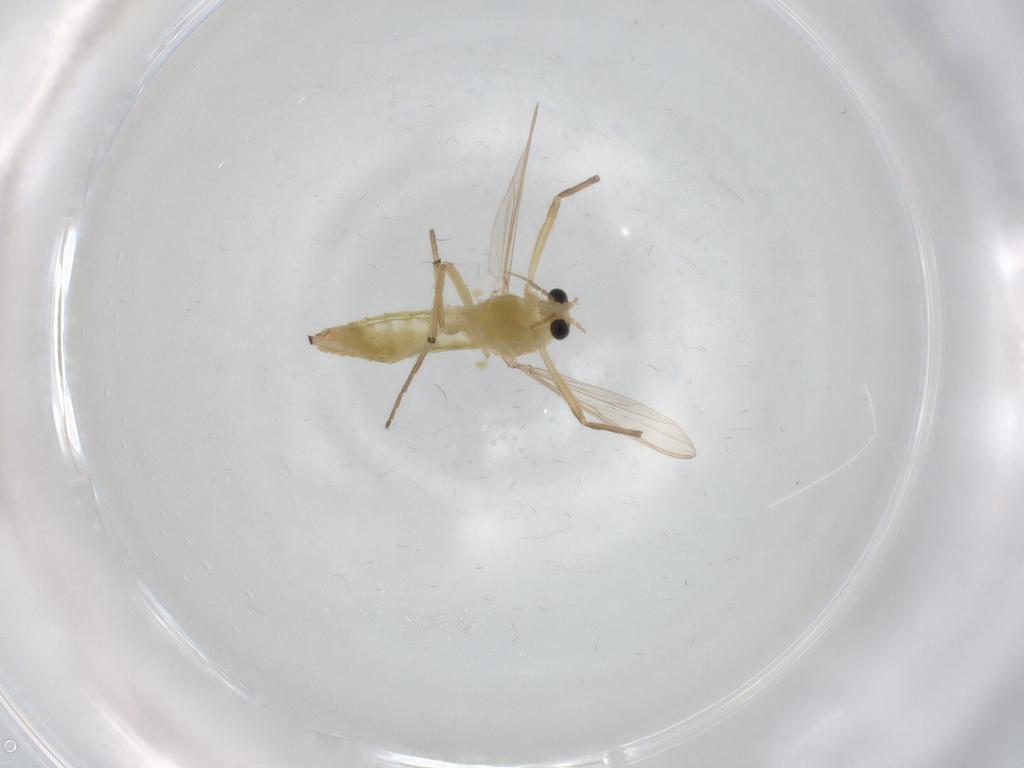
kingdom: Animalia
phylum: Arthropoda
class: Insecta
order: Diptera
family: Chironomidae
